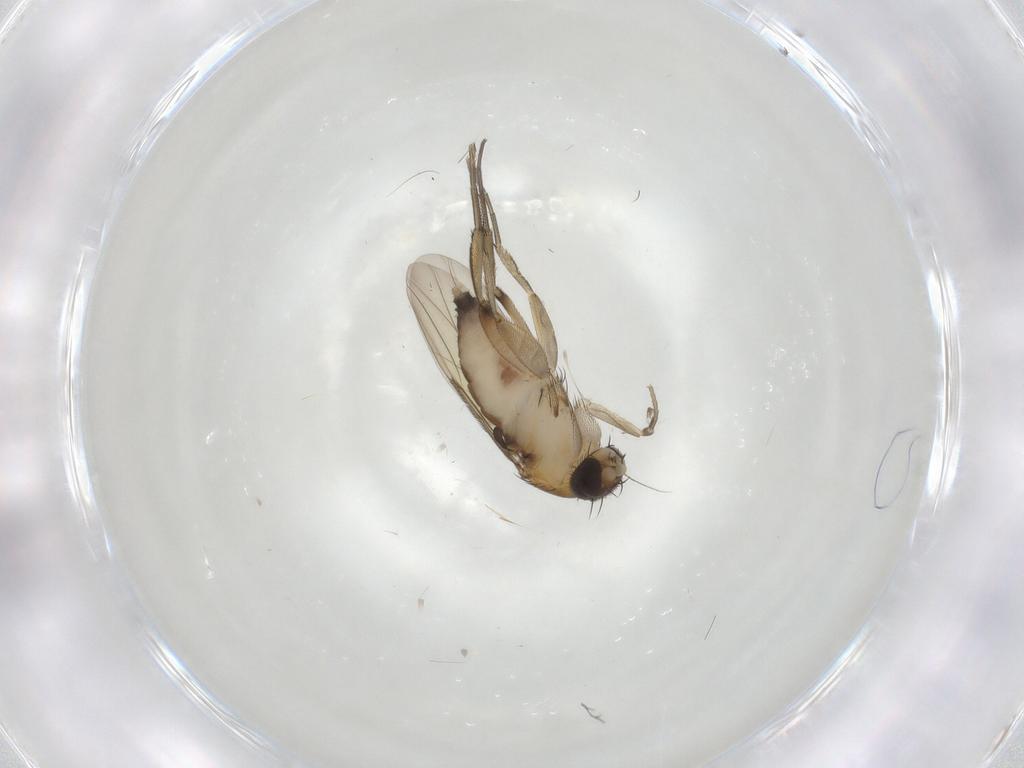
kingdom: Animalia
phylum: Arthropoda
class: Insecta
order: Diptera
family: Phoridae
